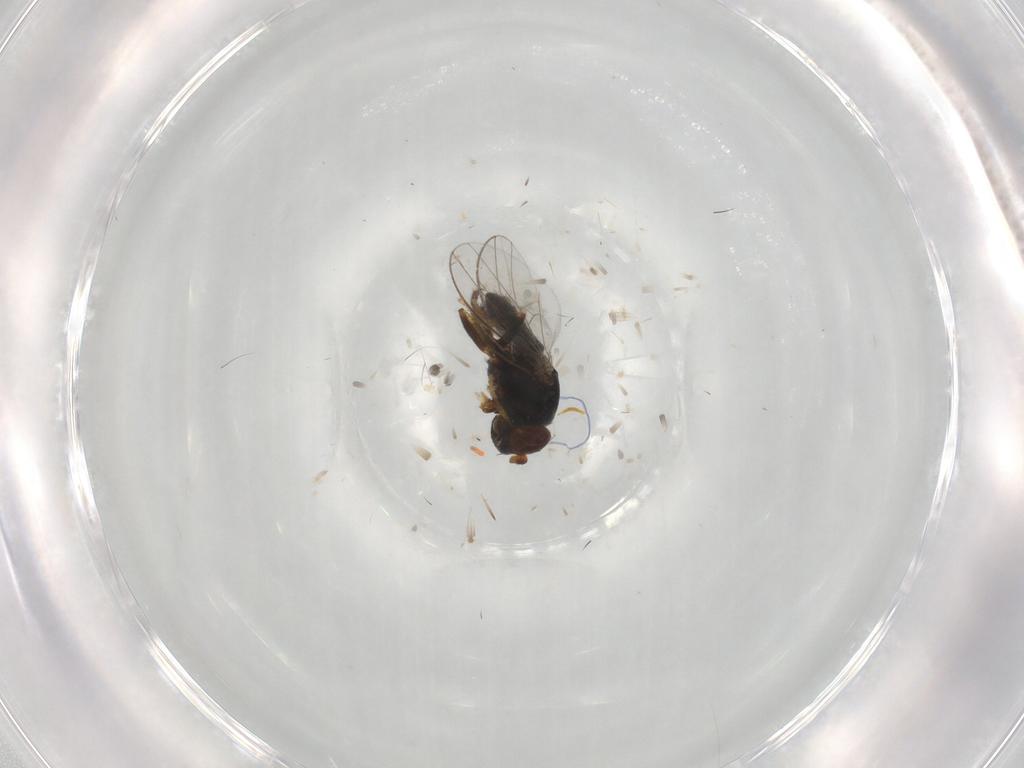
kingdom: Animalia
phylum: Arthropoda
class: Insecta
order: Diptera
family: Ephydridae
